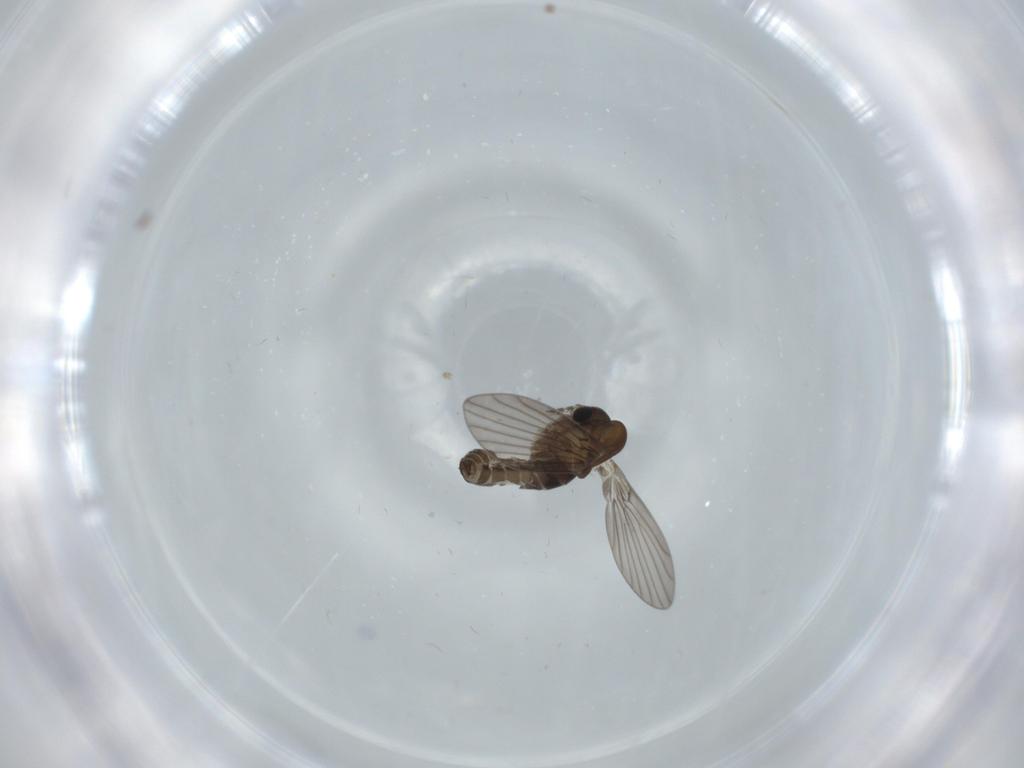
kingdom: Animalia
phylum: Arthropoda
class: Insecta
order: Diptera
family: Psychodidae
